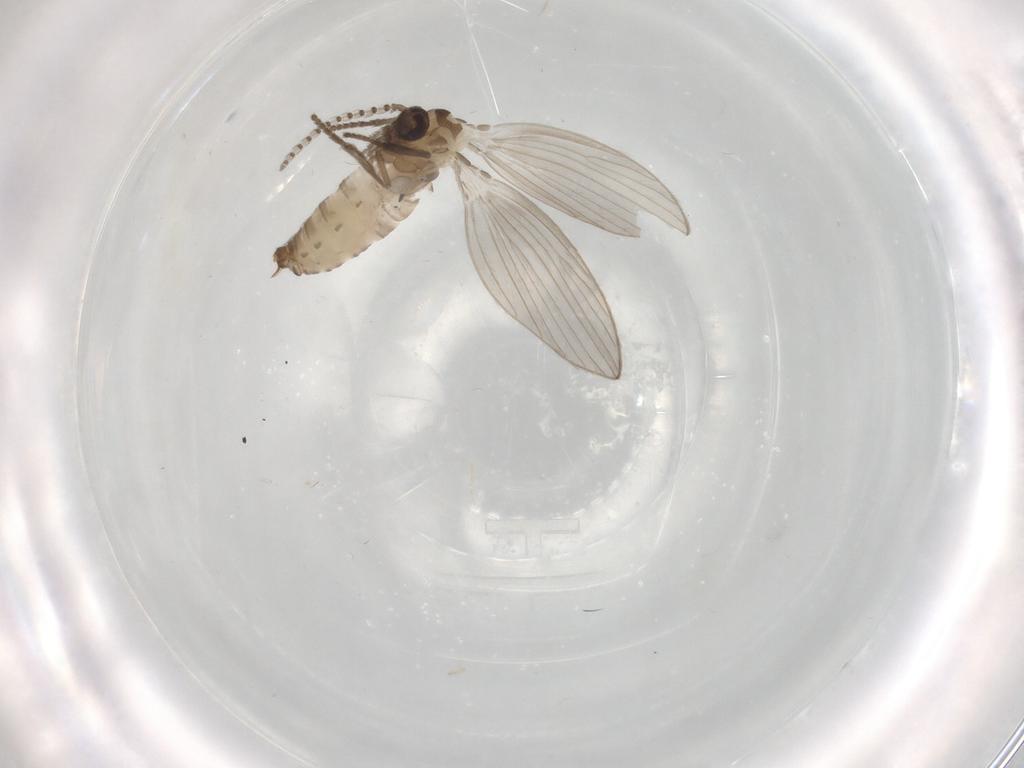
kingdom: Animalia
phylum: Arthropoda
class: Insecta
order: Diptera
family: Psychodidae
